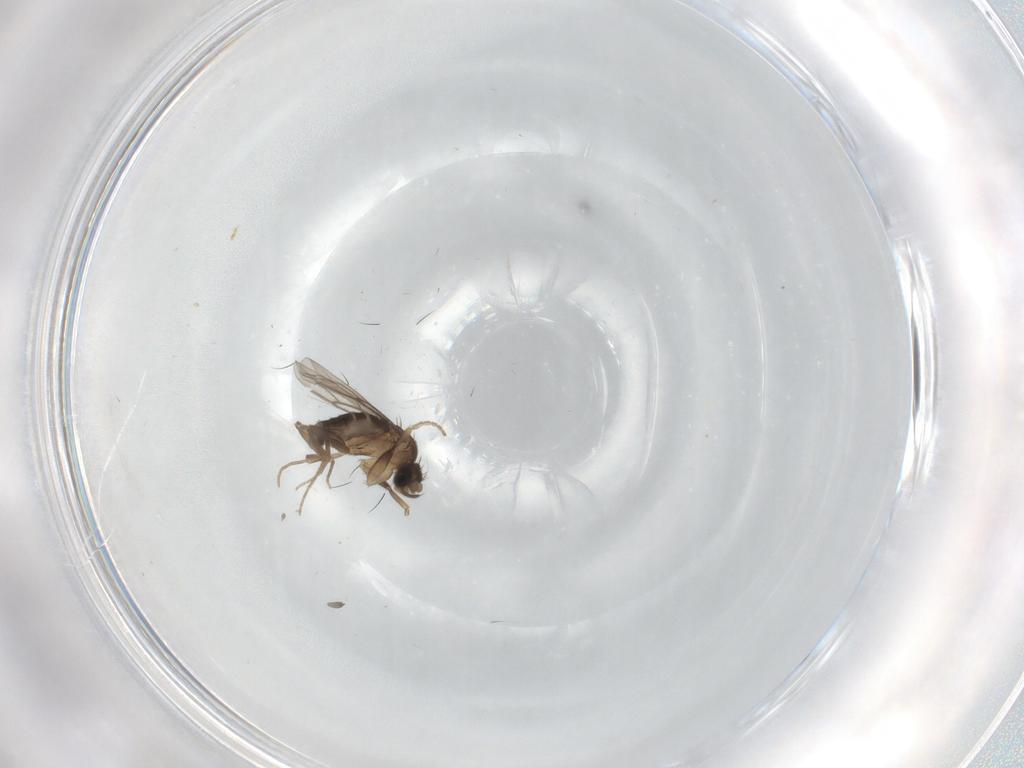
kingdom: Animalia
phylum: Arthropoda
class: Insecta
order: Diptera
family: Phoridae
